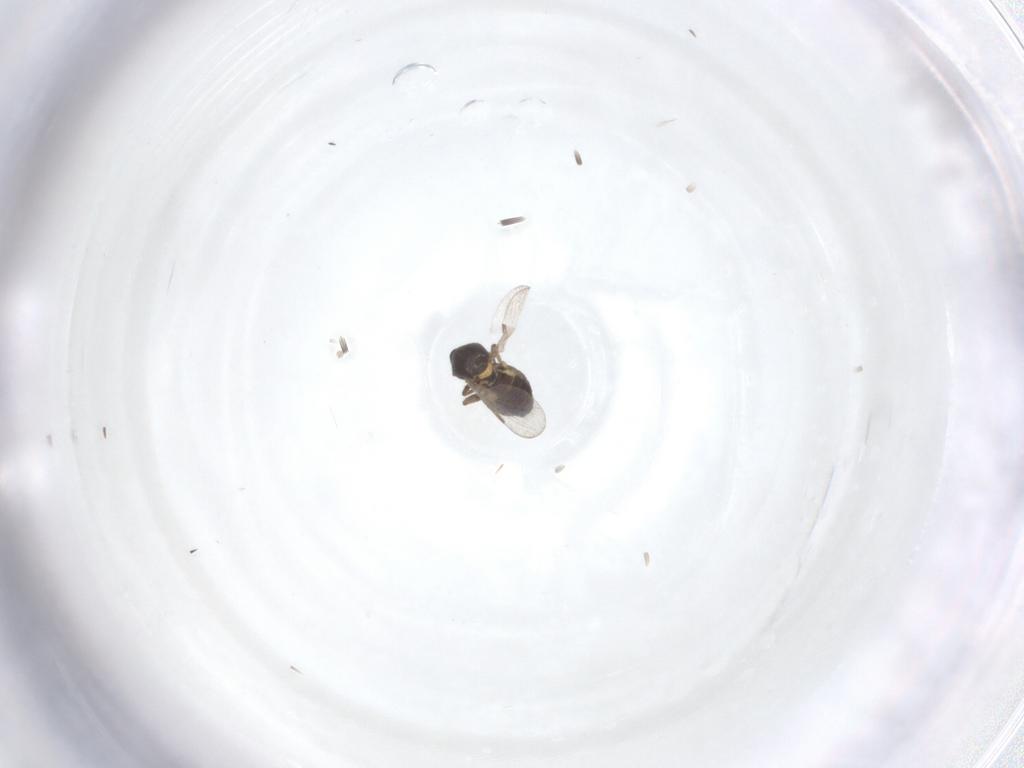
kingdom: Animalia
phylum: Arthropoda
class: Insecta
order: Diptera
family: Ceratopogonidae
